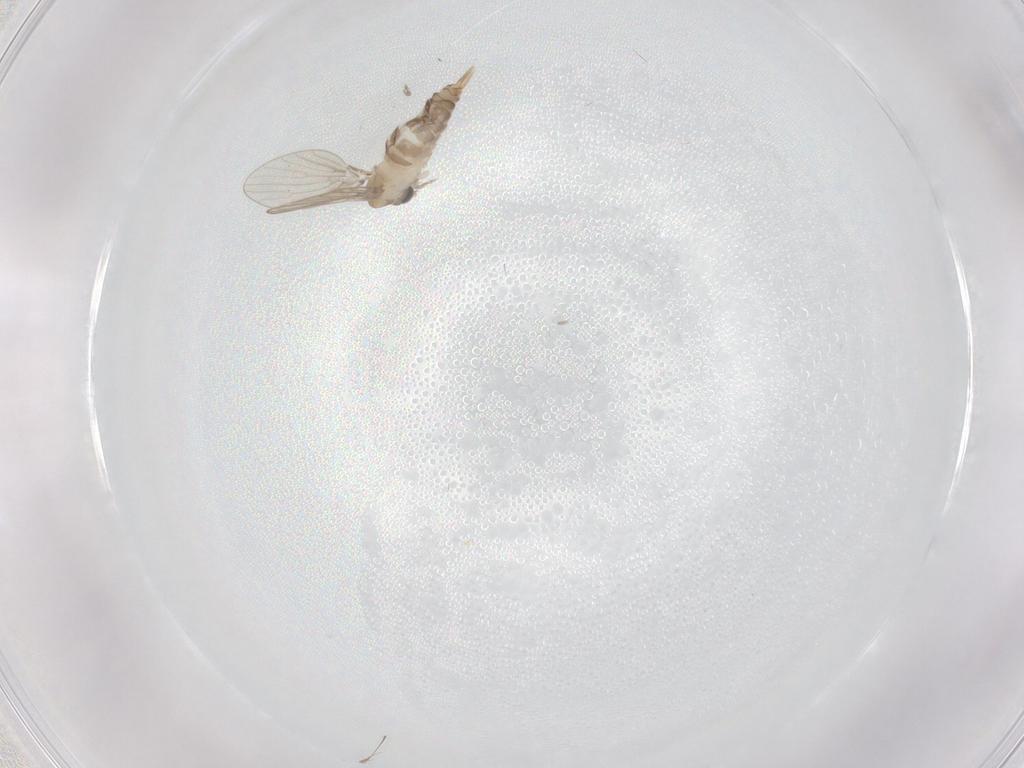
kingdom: Animalia
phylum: Arthropoda
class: Insecta
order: Diptera
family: Psychodidae
